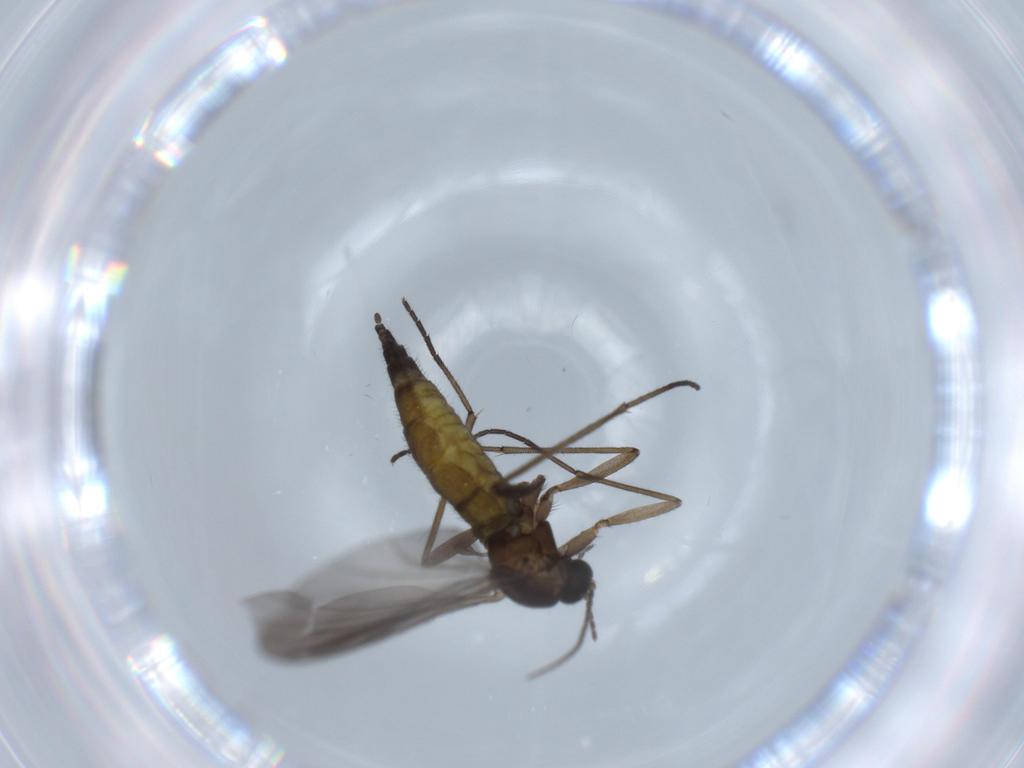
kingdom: Animalia
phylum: Arthropoda
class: Insecta
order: Diptera
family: Sciaridae
